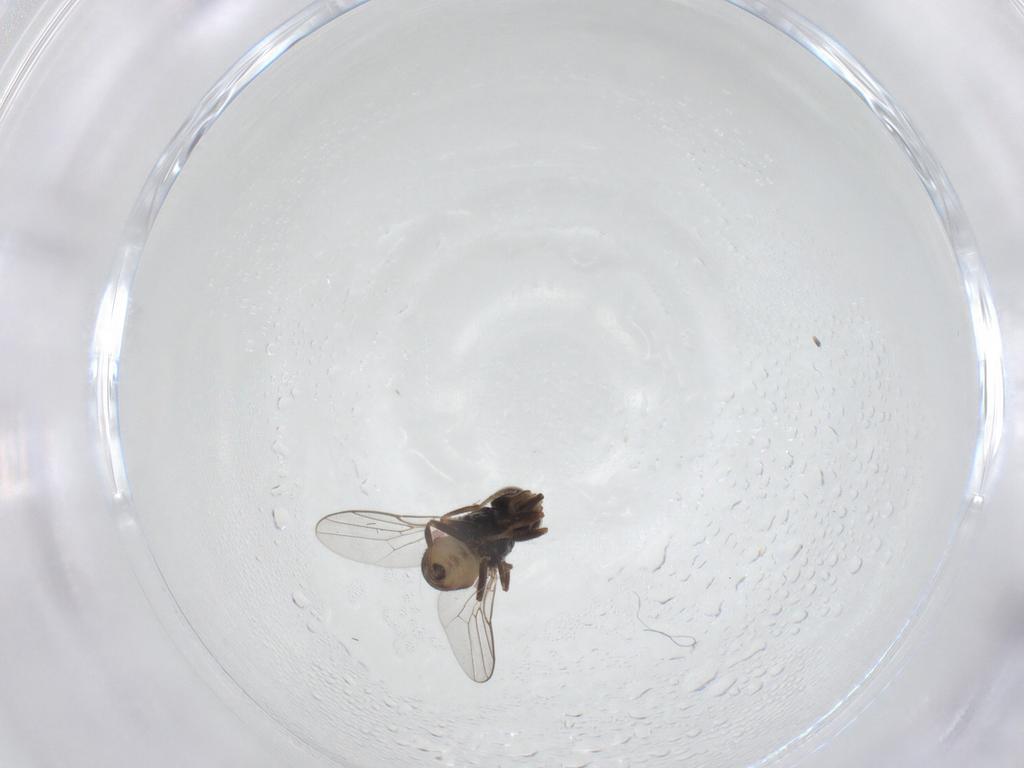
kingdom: Animalia
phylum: Arthropoda
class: Insecta
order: Diptera
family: Chloropidae
